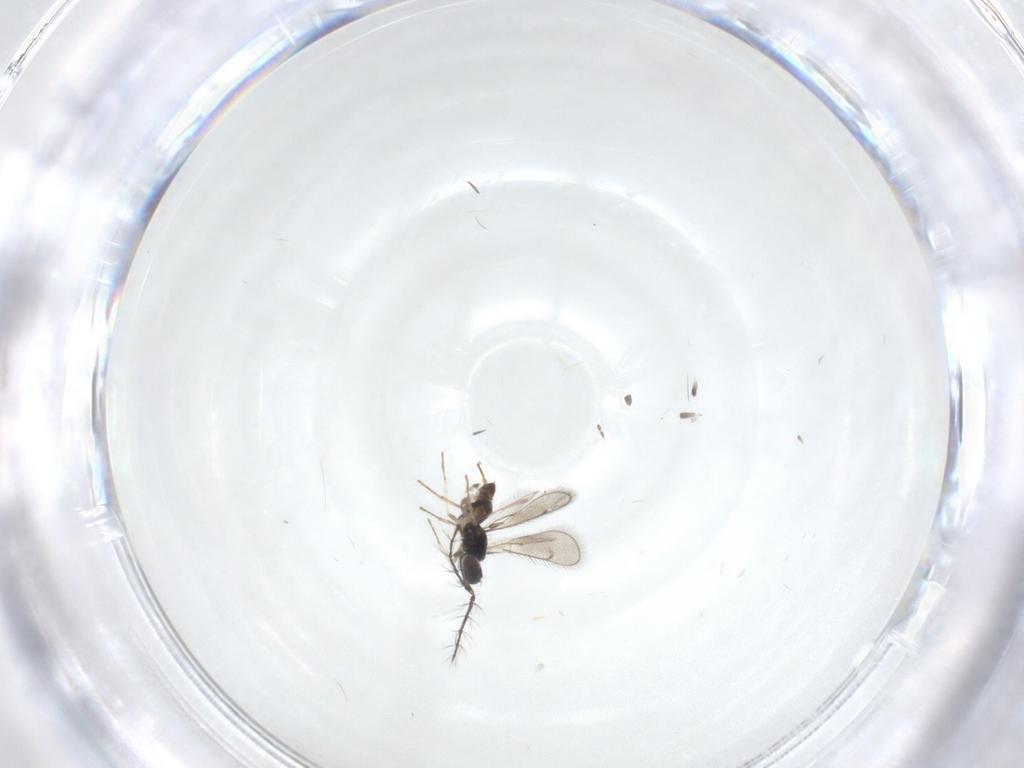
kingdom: Animalia
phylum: Arthropoda
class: Insecta
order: Hymenoptera
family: Eulophidae
